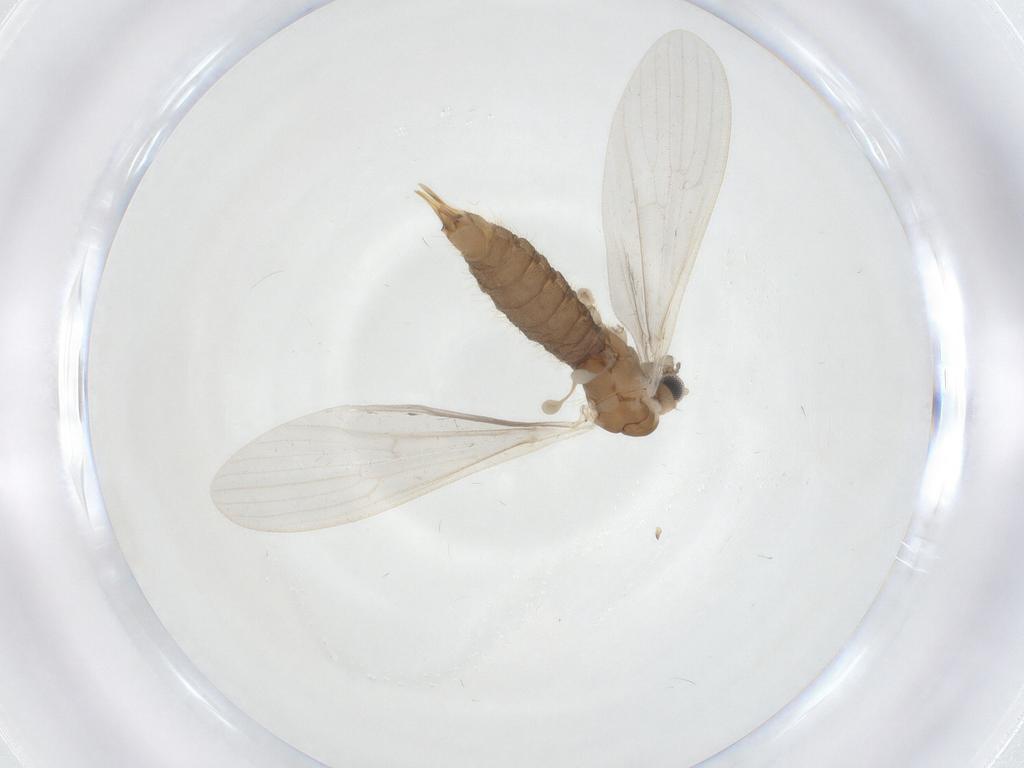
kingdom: Animalia
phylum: Arthropoda
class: Insecta
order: Diptera
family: Limoniidae
